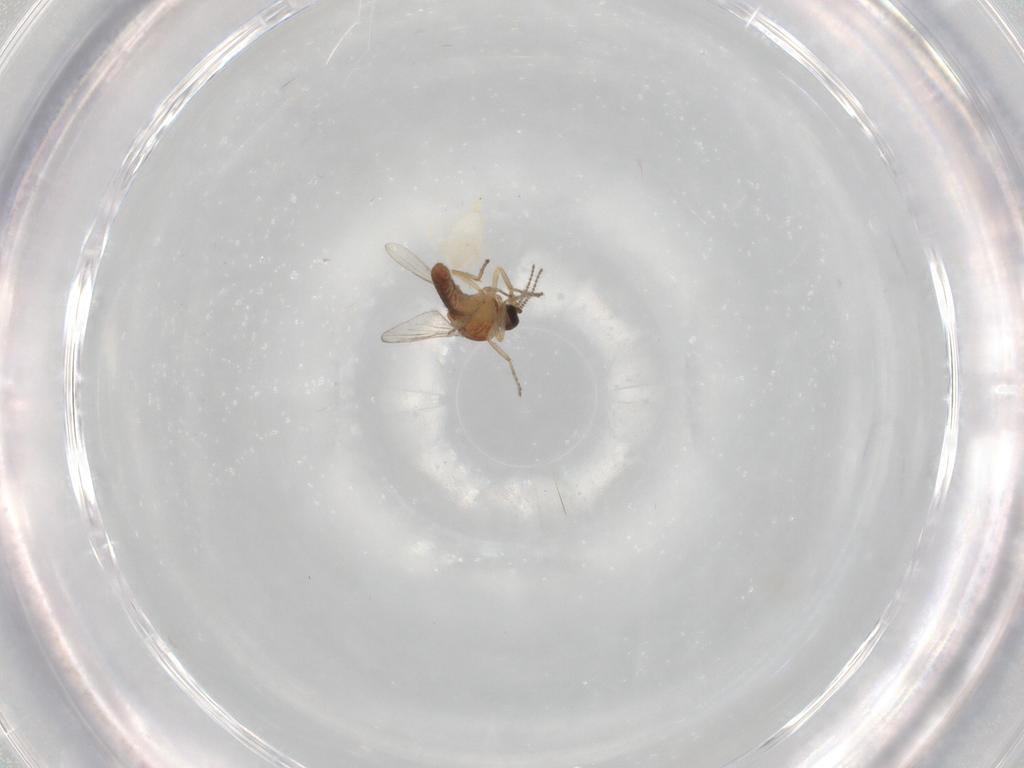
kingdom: Animalia
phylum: Arthropoda
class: Insecta
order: Diptera
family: Ceratopogonidae
